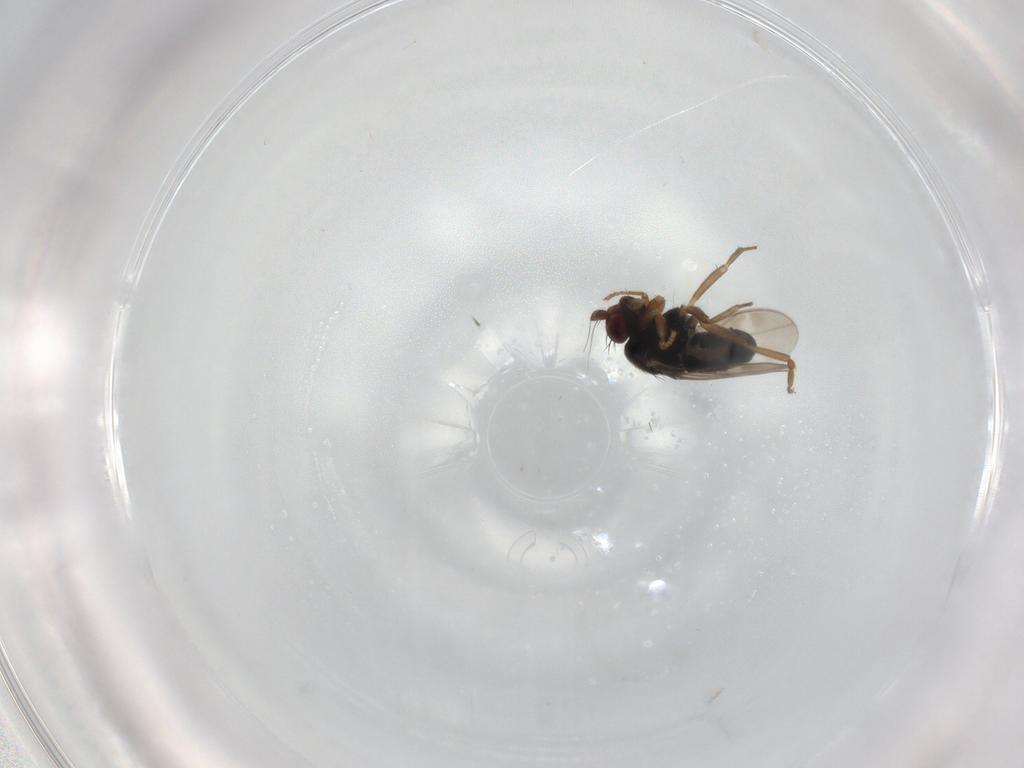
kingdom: Animalia
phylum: Arthropoda
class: Insecta
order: Diptera
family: Sphaeroceridae
